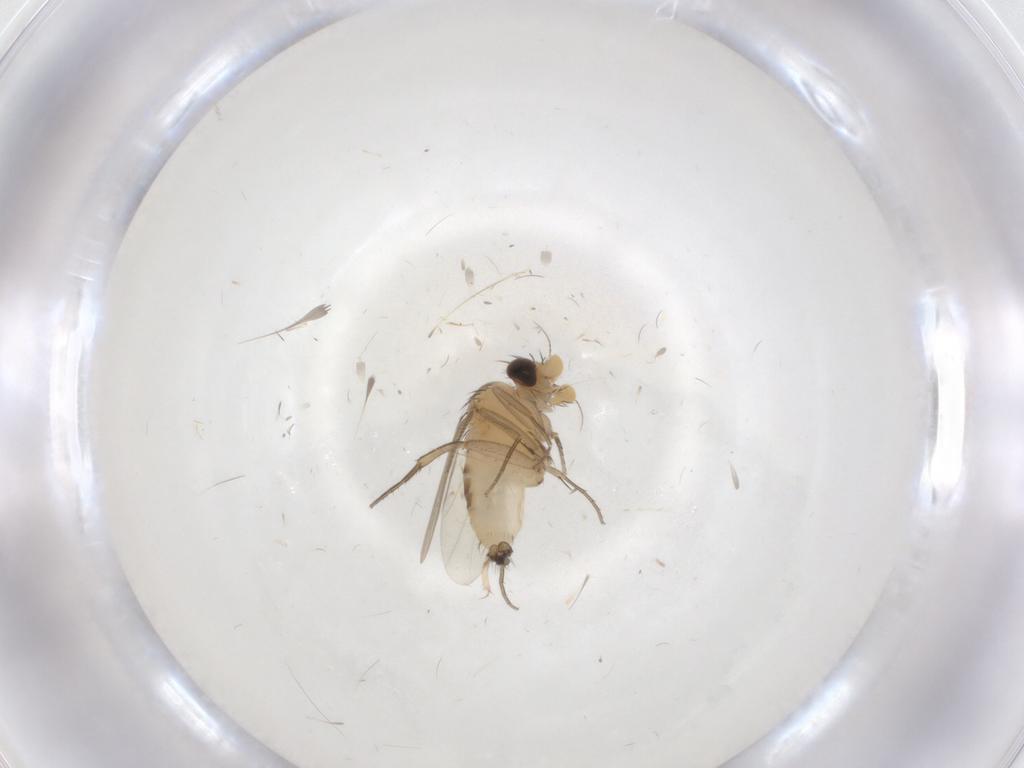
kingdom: Animalia
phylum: Arthropoda
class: Insecta
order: Diptera
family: Phoridae
